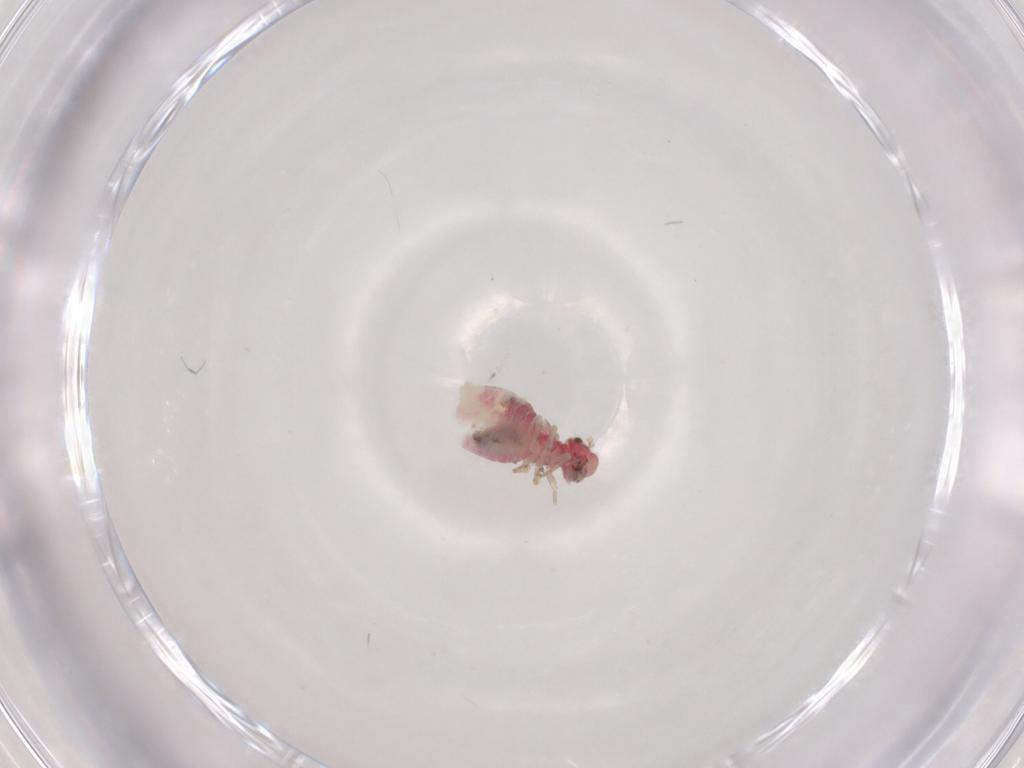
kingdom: Animalia
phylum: Arthropoda
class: Insecta
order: Psocodea
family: Caeciliusidae
